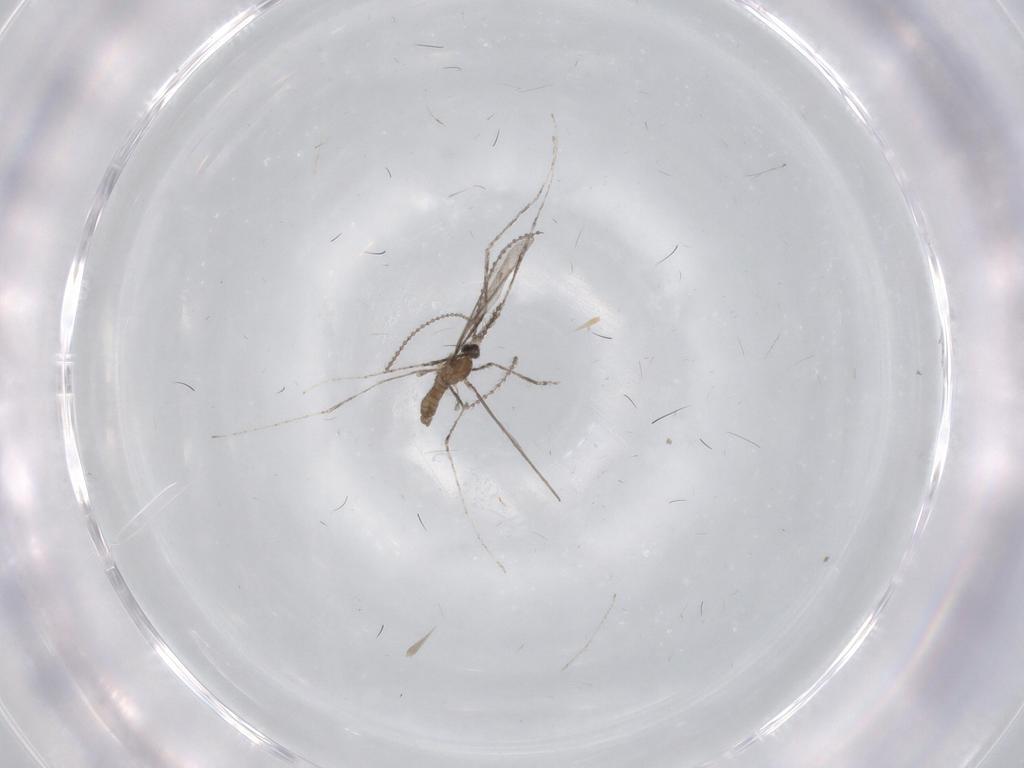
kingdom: Animalia
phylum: Arthropoda
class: Insecta
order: Diptera
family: Cecidomyiidae
